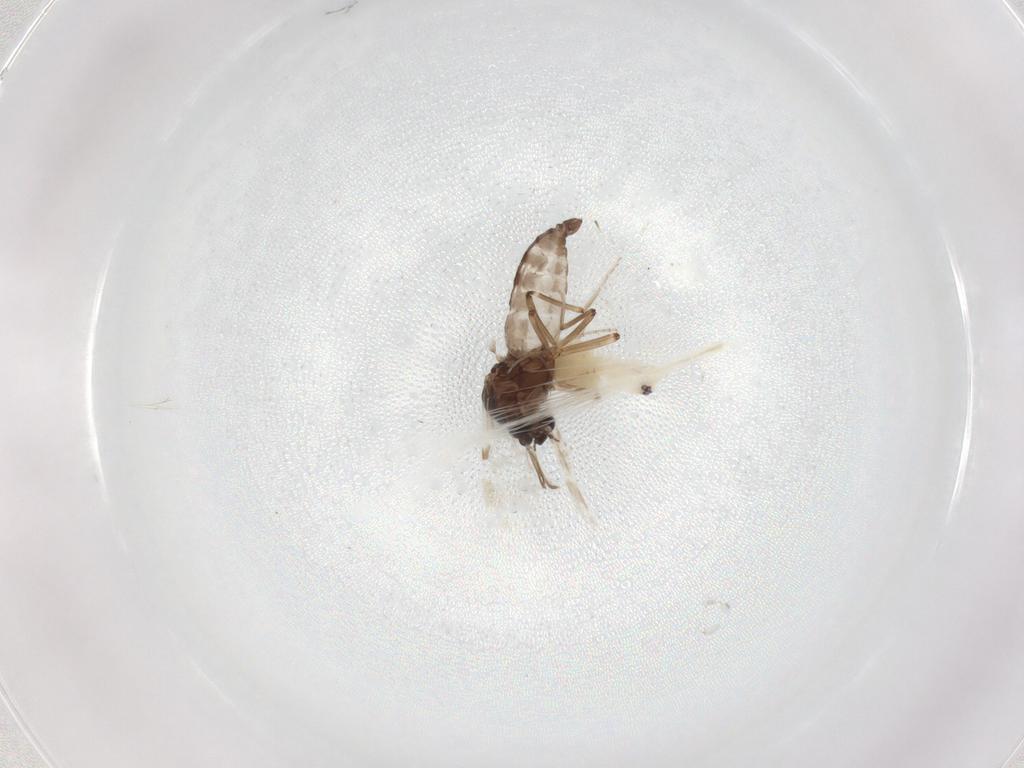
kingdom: Animalia
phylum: Arthropoda
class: Insecta
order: Diptera
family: Ceratopogonidae
